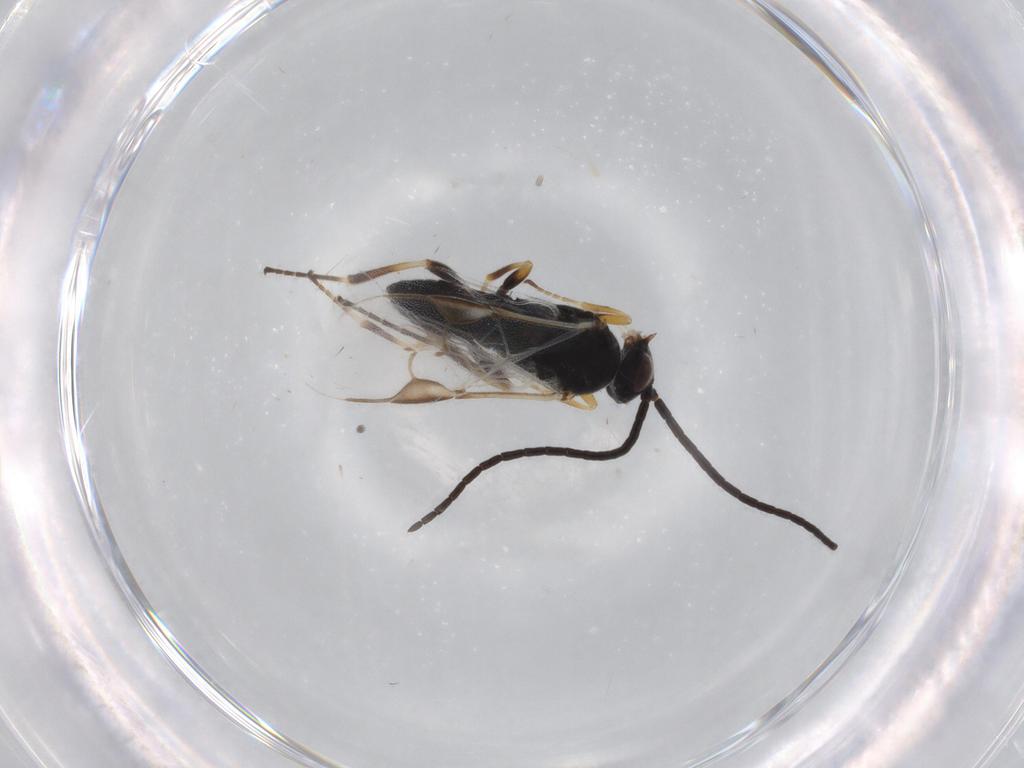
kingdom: Animalia
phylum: Arthropoda
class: Insecta
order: Hymenoptera
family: Braconidae
